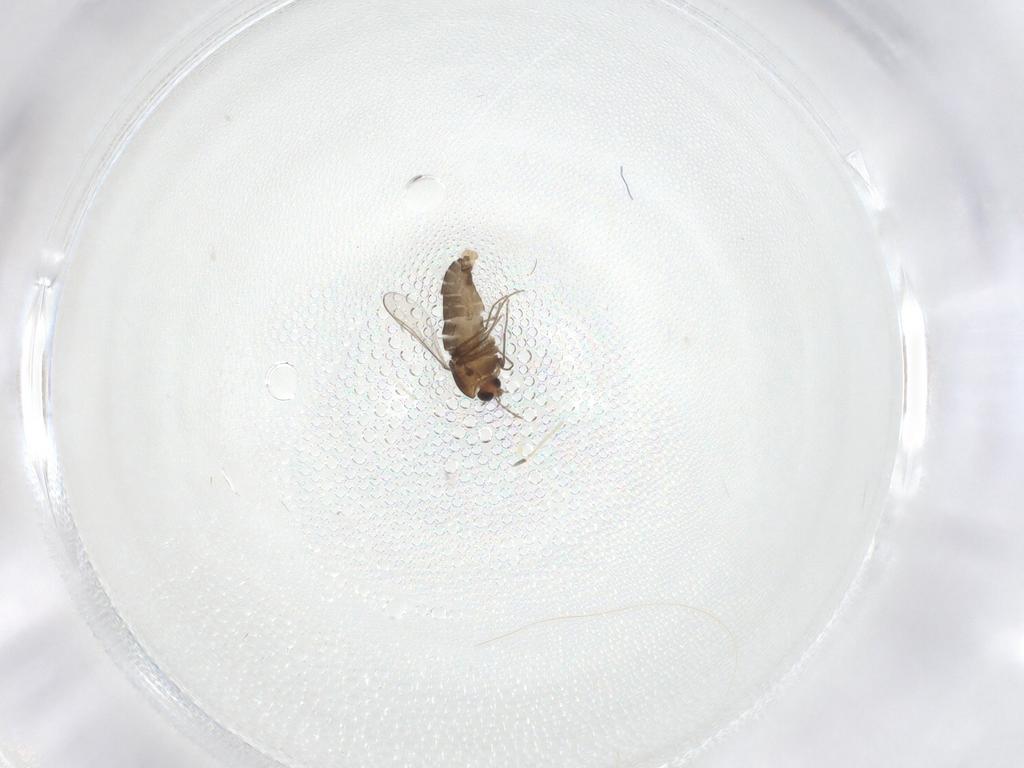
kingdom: Animalia
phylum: Arthropoda
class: Insecta
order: Diptera
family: Chironomidae
